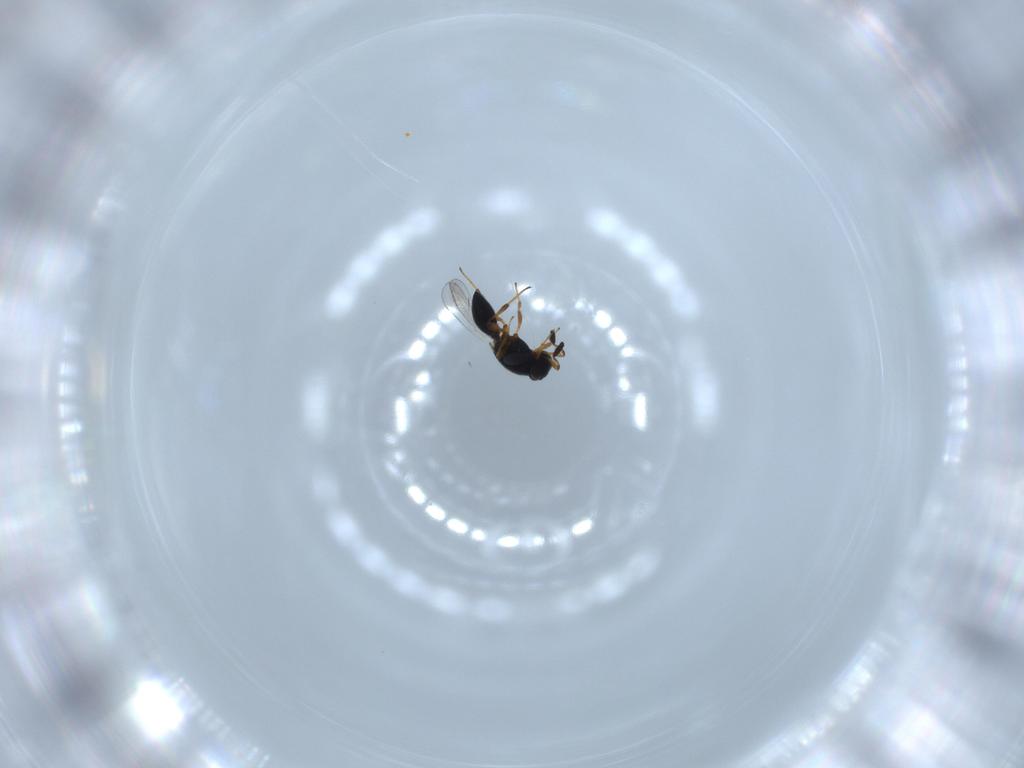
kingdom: Animalia
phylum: Arthropoda
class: Insecta
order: Hymenoptera
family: Platygastridae
